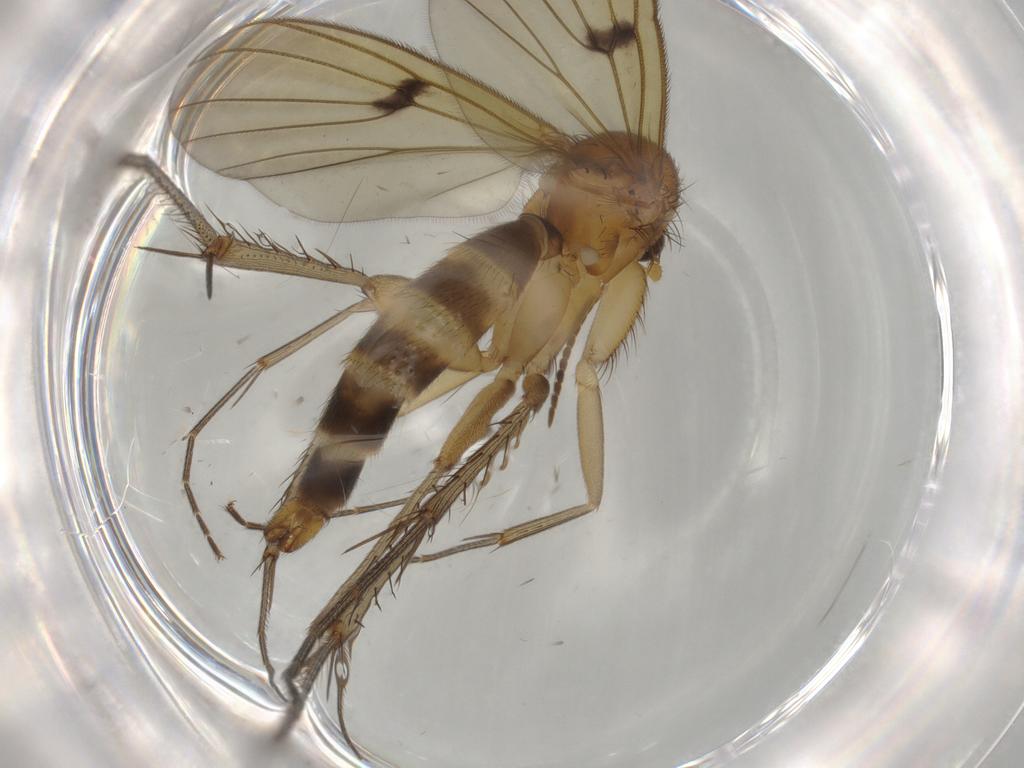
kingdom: Animalia
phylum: Arthropoda
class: Insecta
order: Diptera
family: Mycetophilidae
